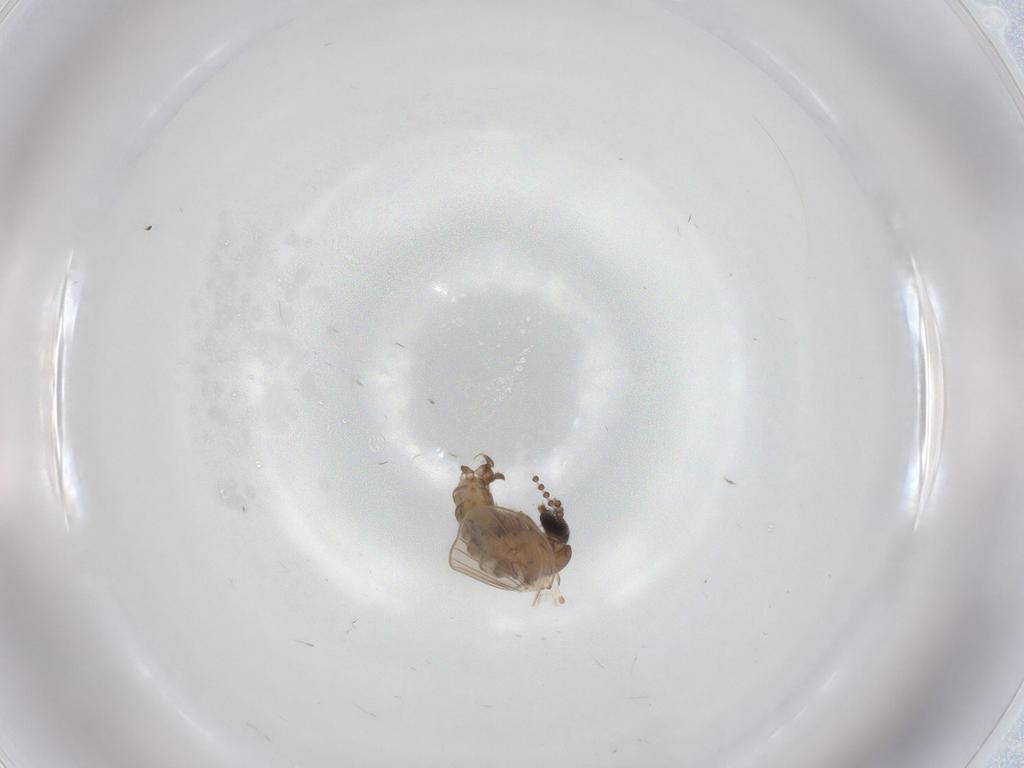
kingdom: Animalia
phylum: Arthropoda
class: Insecta
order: Diptera
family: Psychodidae
